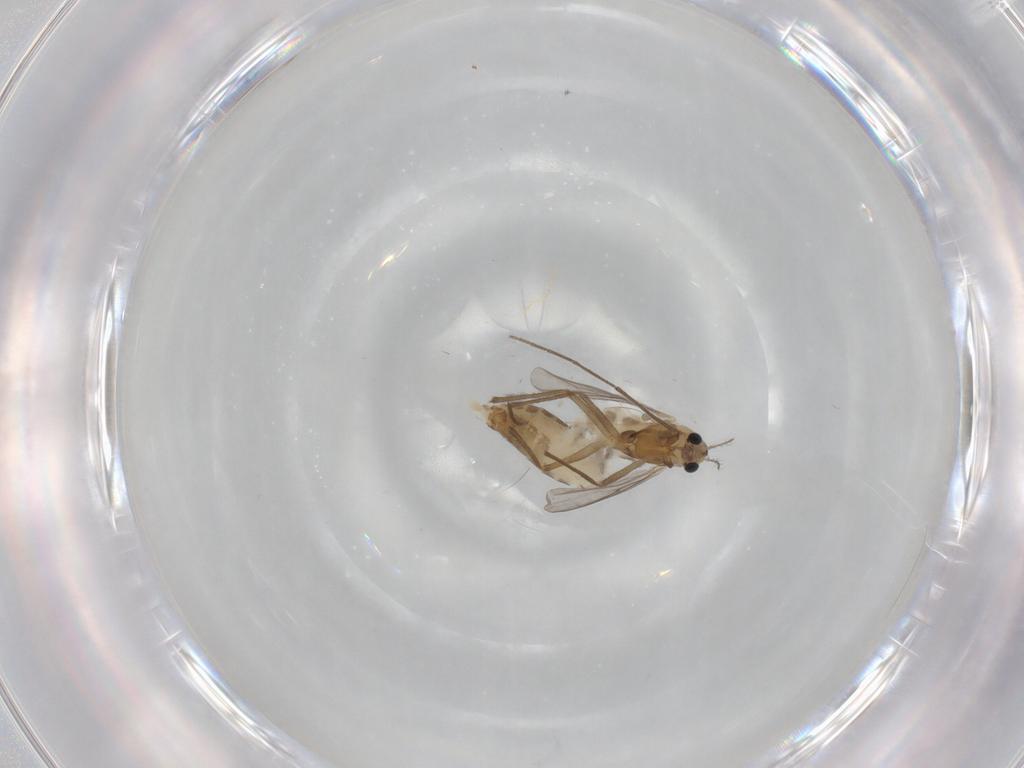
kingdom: Animalia
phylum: Arthropoda
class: Insecta
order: Diptera
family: Chironomidae
